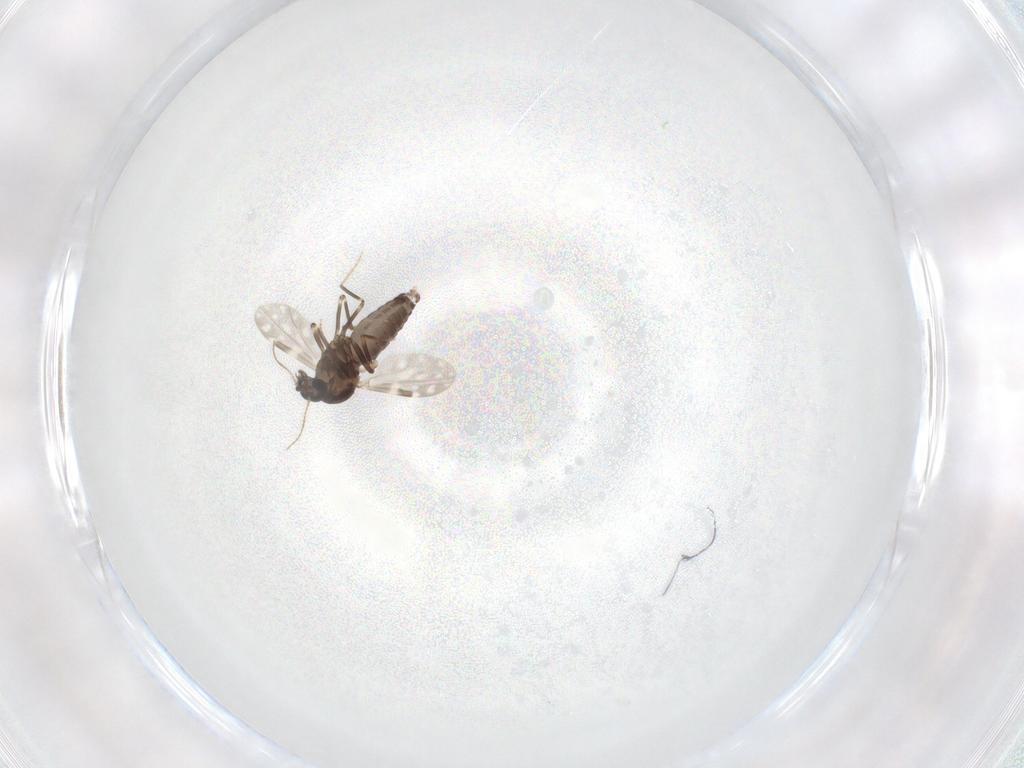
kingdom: Animalia
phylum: Arthropoda
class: Insecta
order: Diptera
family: Ceratopogonidae
